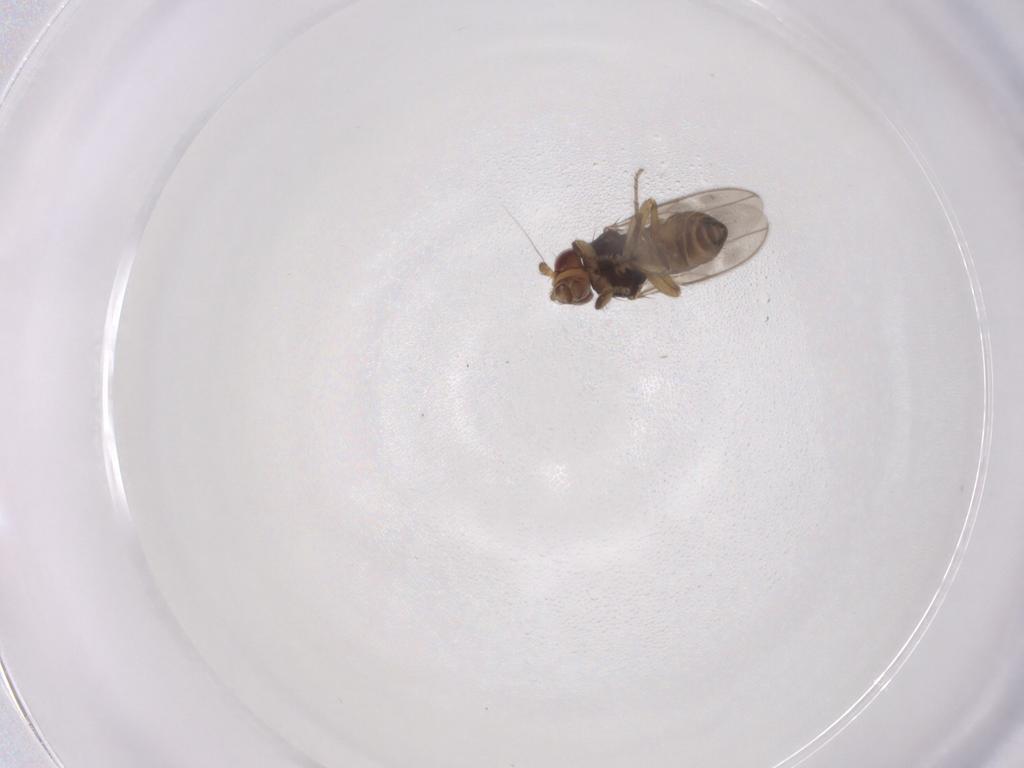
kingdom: Animalia
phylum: Arthropoda
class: Insecta
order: Diptera
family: Sphaeroceridae
